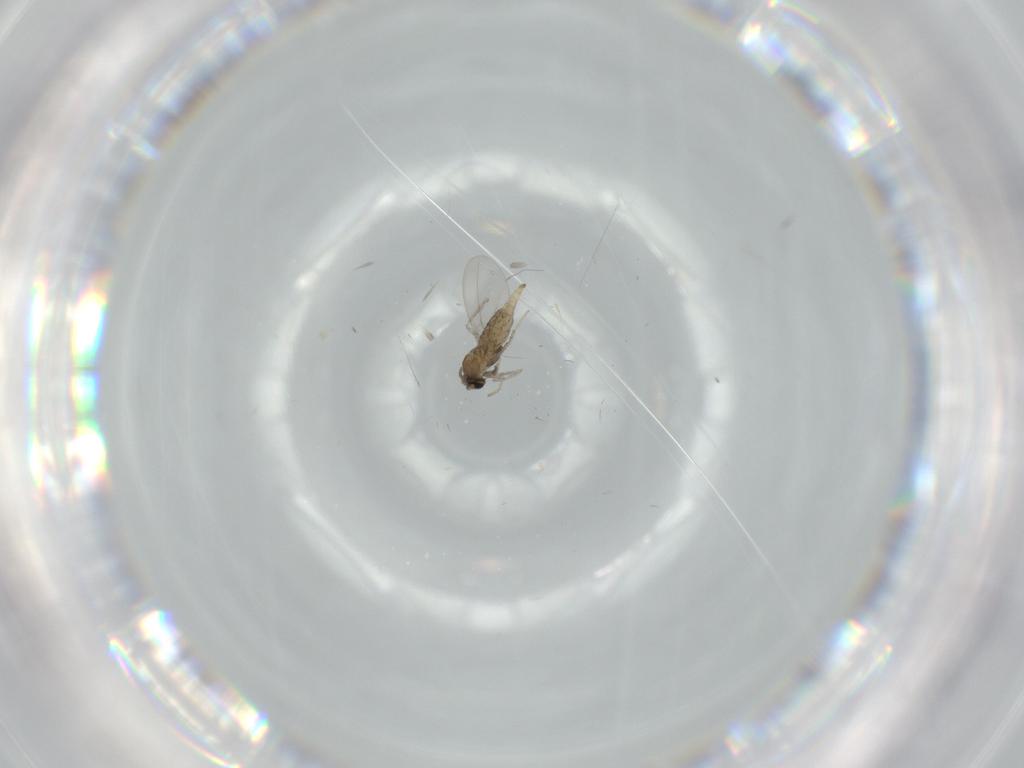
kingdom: Animalia
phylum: Arthropoda
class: Insecta
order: Diptera
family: Cecidomyiidae
